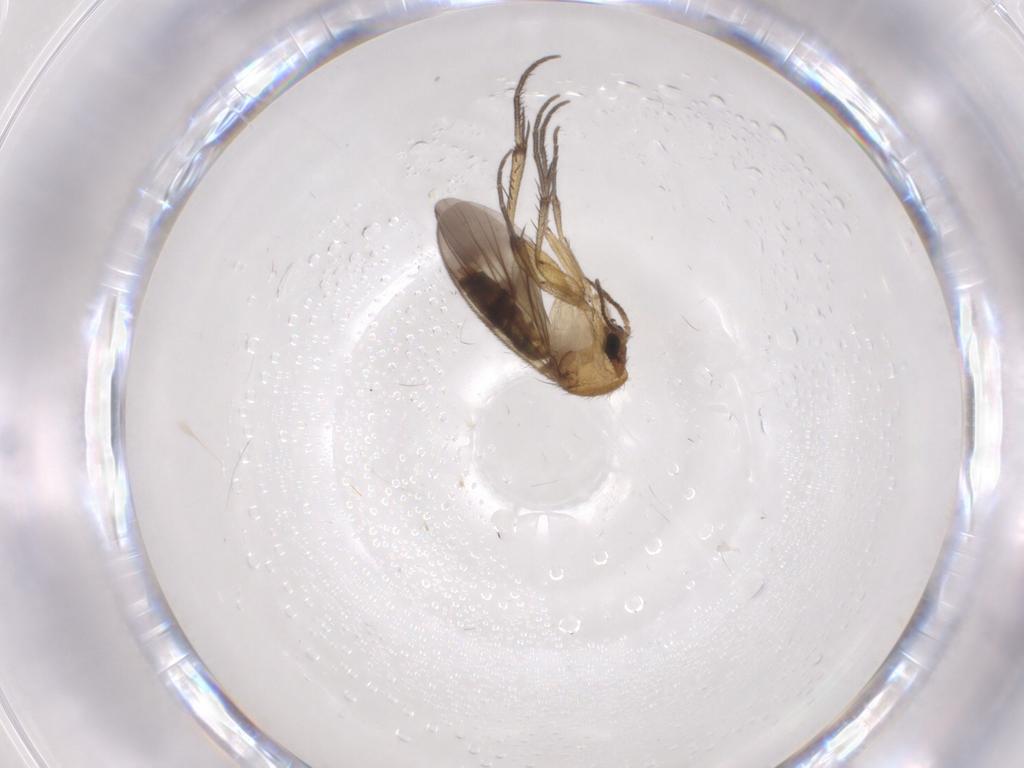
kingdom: Animalia
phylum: Arthropoda
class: Insecta
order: Diptera
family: Mycetophilidae
